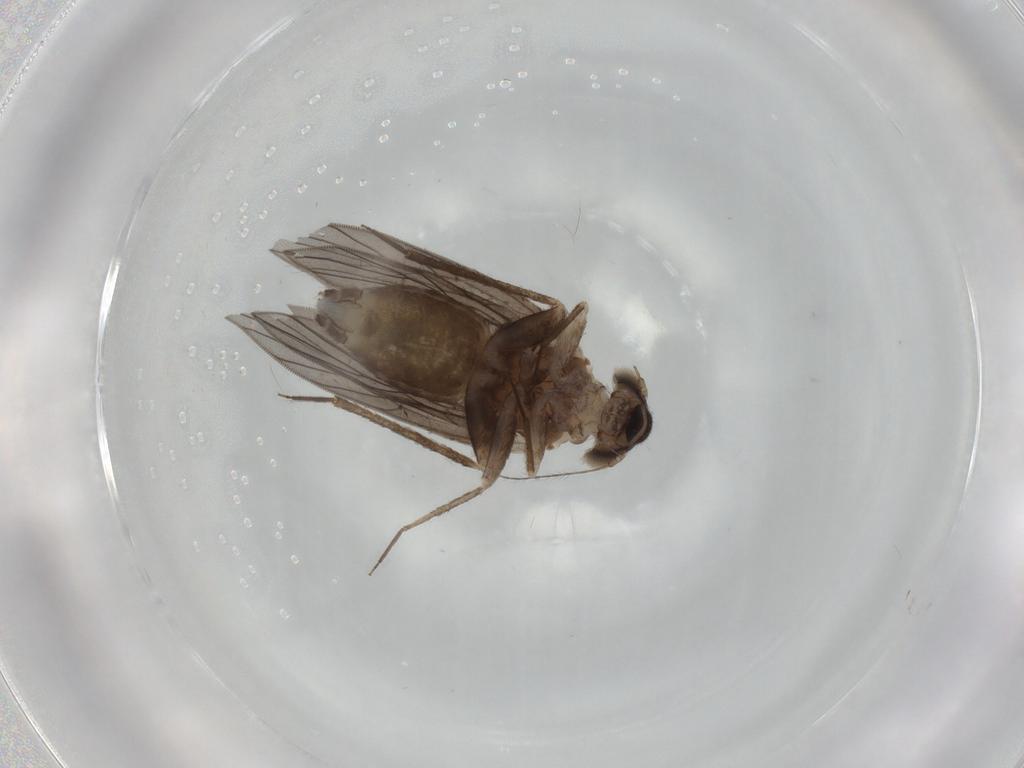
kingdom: Animalia
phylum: Arthropoda
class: Insecta
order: Psocodea
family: Lepidopsocidae
